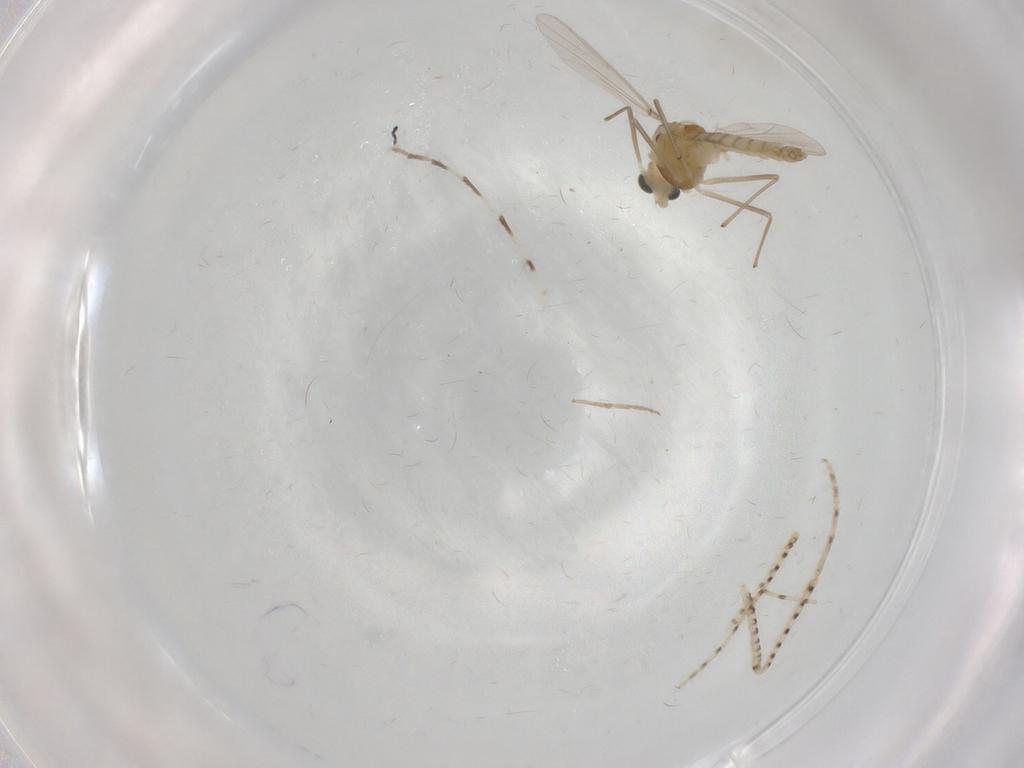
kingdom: Animalia
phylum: Arthropoda
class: Insecta
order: Diptera
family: Chironomidae
